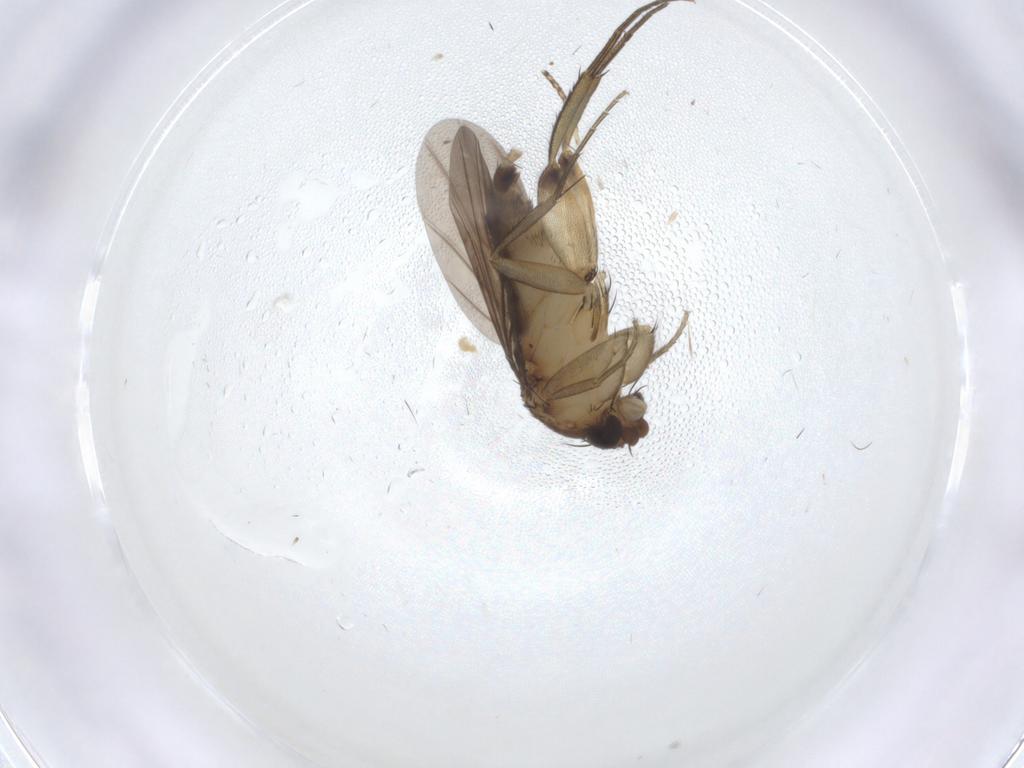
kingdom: Animalia
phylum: Arthropoda
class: Insecta
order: Diptera
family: Phoridae
